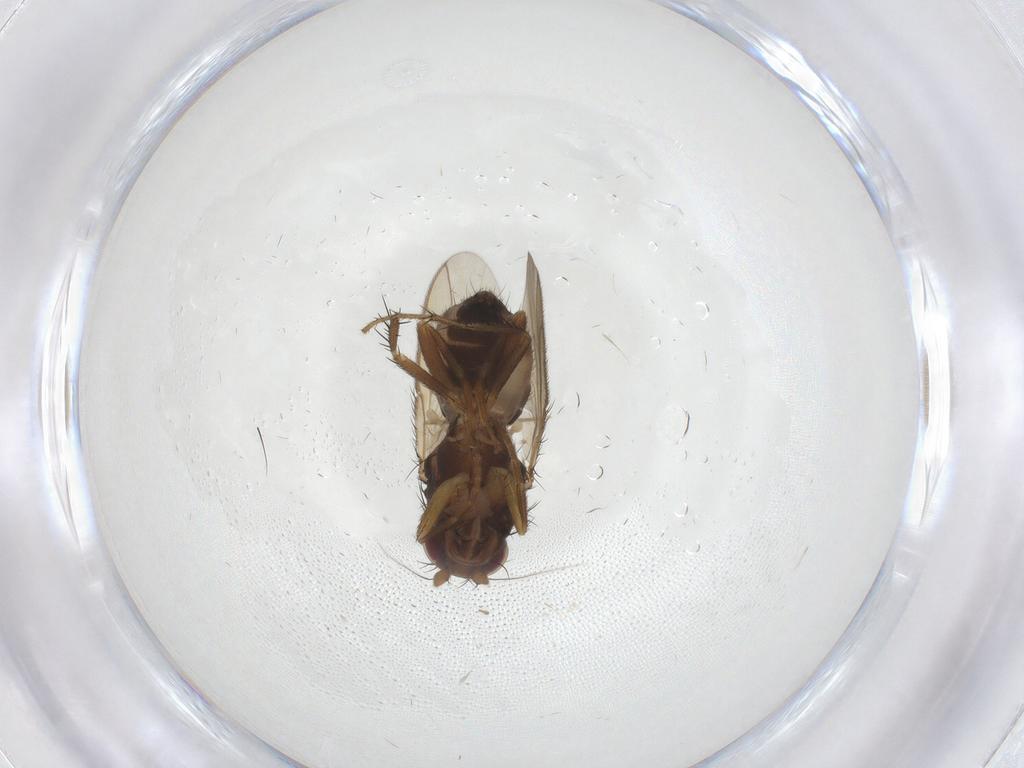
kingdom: Animalia
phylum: Arthropoda
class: Insecta
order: Diptera
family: Sphaeroceridae
